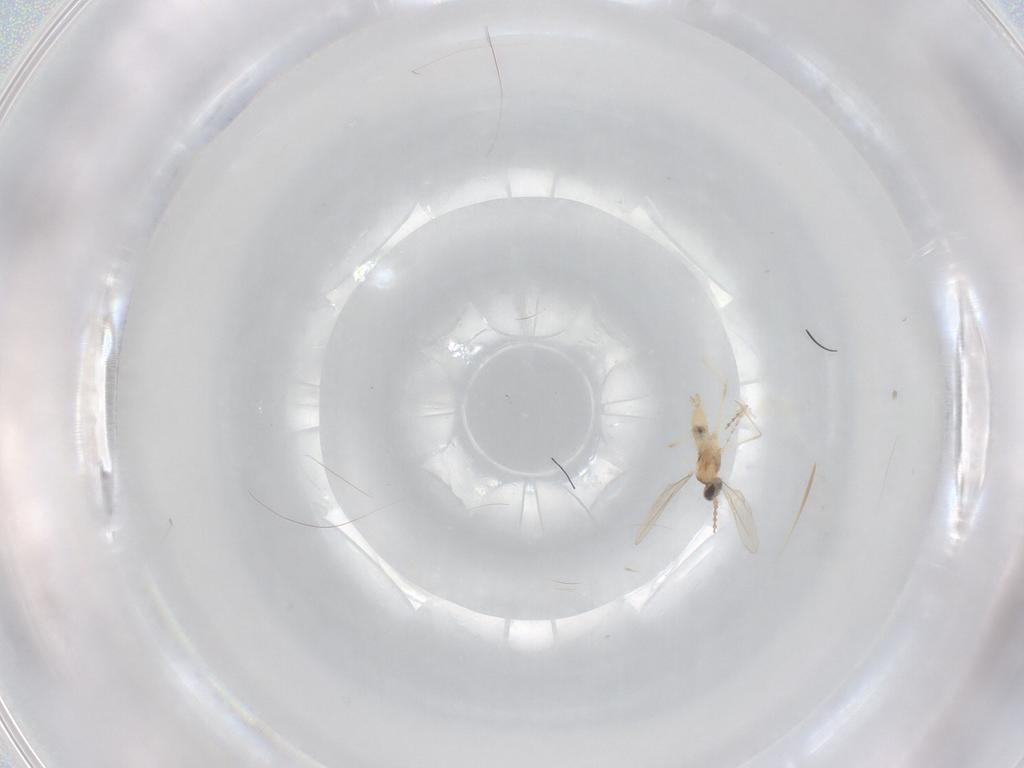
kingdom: Animalia
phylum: Arthropoda
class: Insecta
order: Diptera
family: Cecidomyiidae
